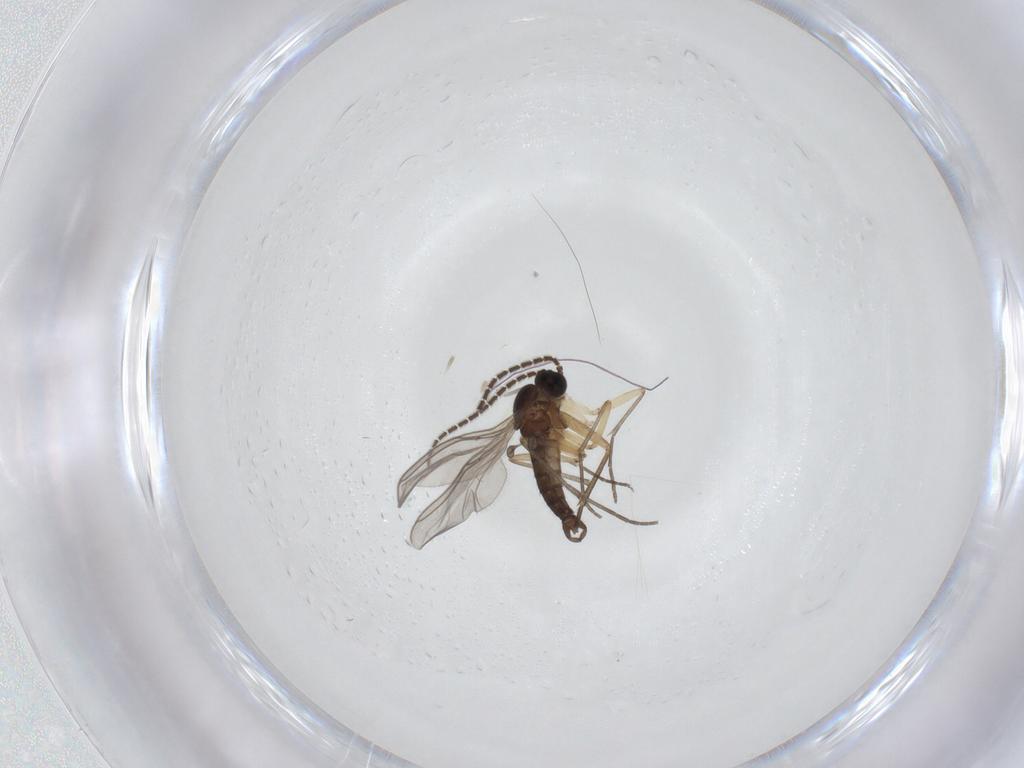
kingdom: Animalia
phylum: Arthropoda
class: Insecta
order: Diptera
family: Sciaridae
